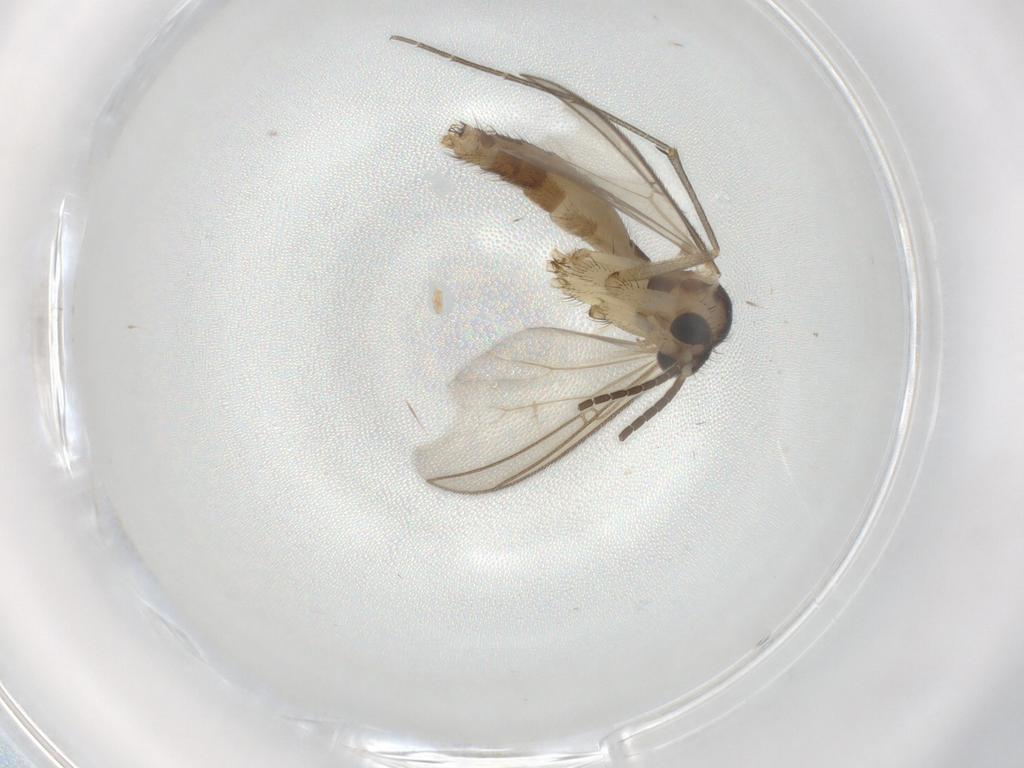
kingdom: Animalia
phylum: Arthropoda
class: Insecta
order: Diptera
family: Mycetophilidae
